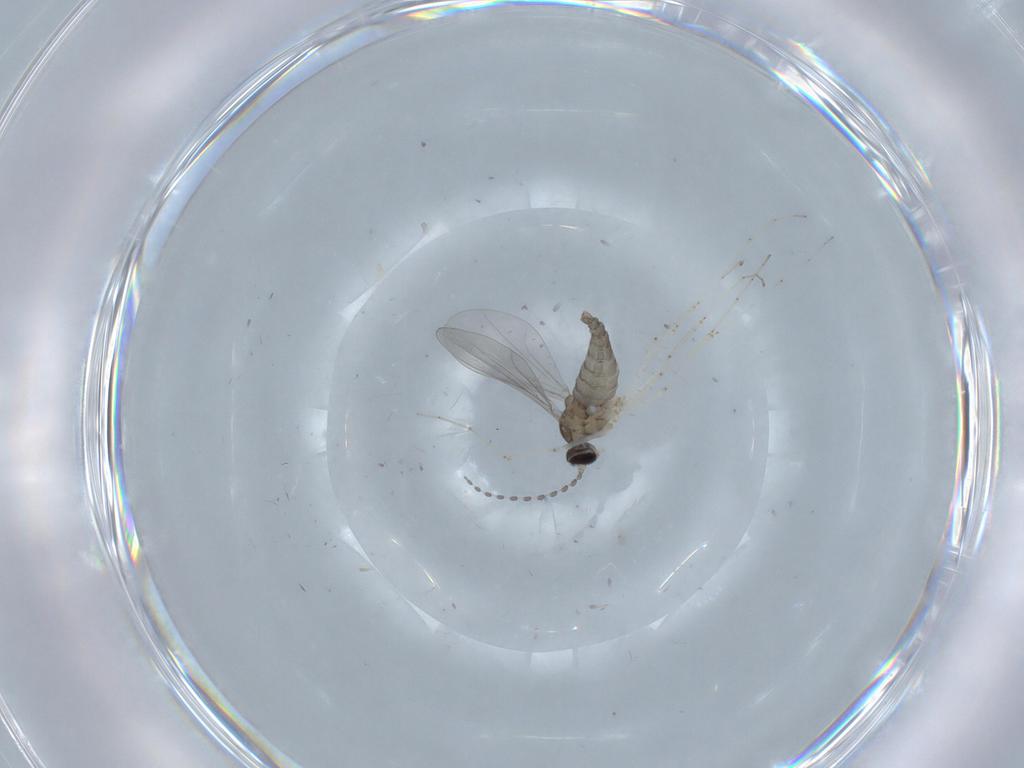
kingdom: Animalia
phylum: Arthropoda
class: Insecta
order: Diptera
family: Cecidomyiidae
